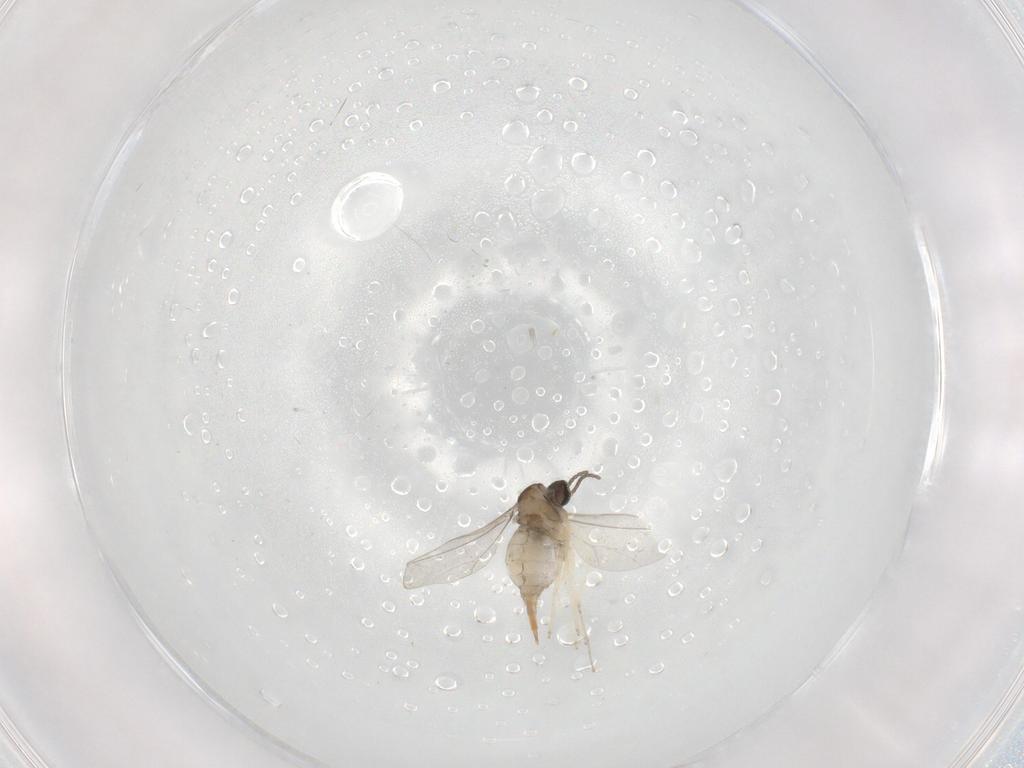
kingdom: Animalia
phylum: Arthropoda
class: Insecta
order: Diptera
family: Cecidomyiidae
